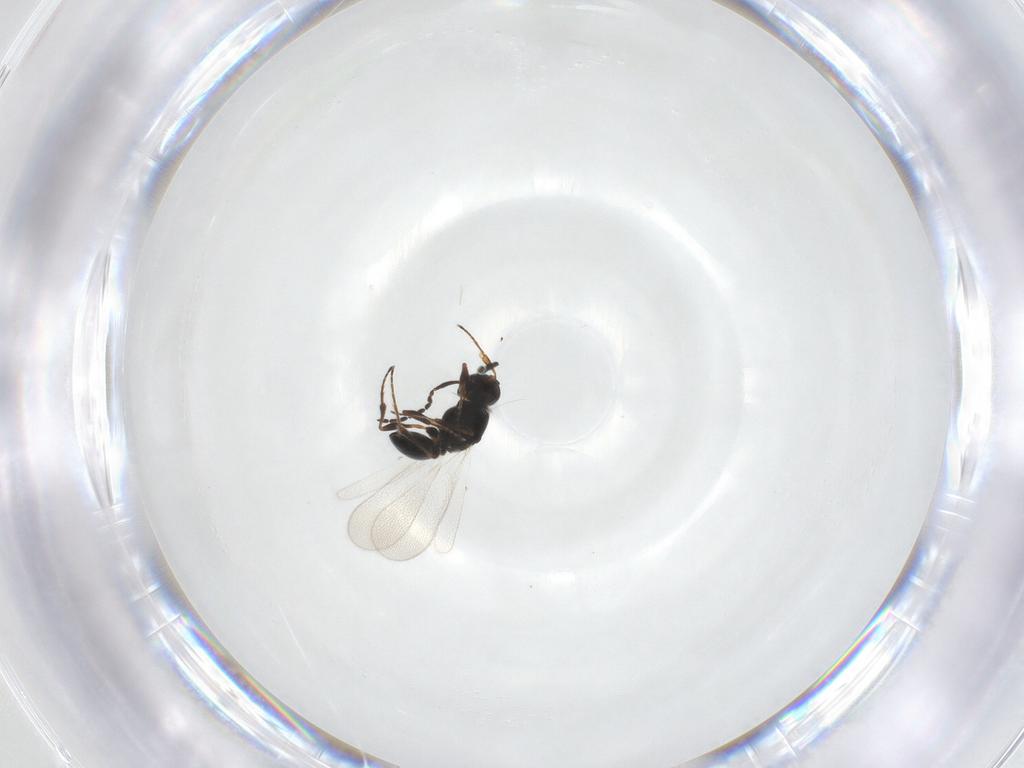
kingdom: Animalia
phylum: Arthropoda
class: Insecta
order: Hymenoptera
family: Platygastridae
